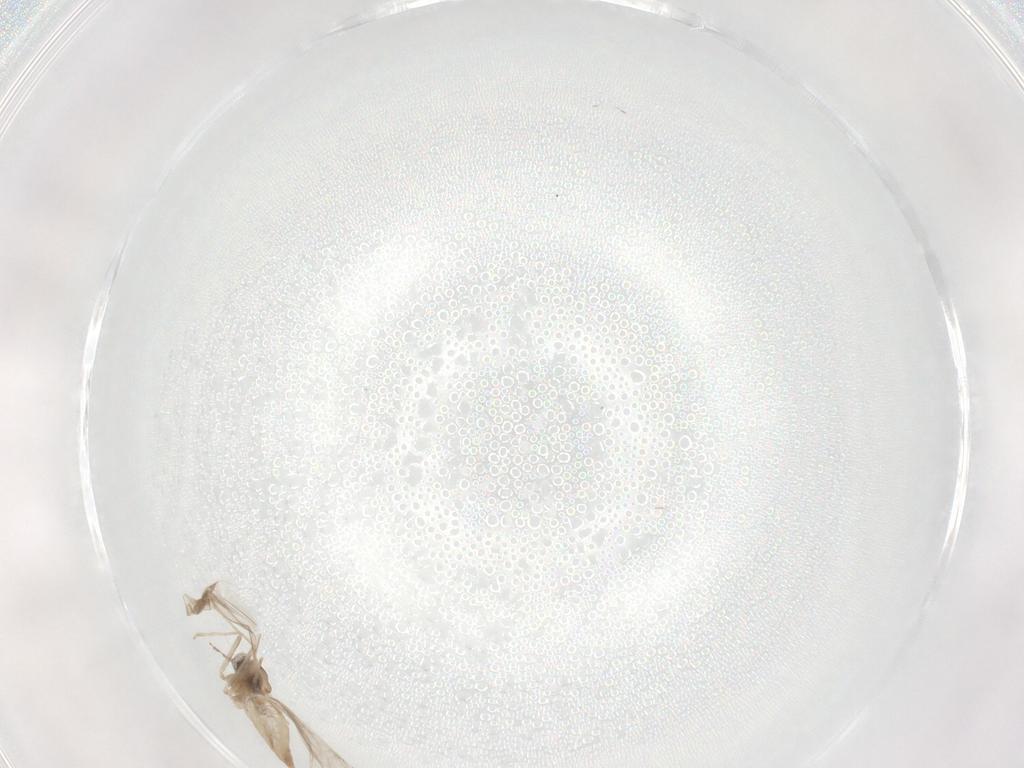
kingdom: Animalia
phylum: Arthropoda
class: Insecta
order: Diptera
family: Chironomidae
